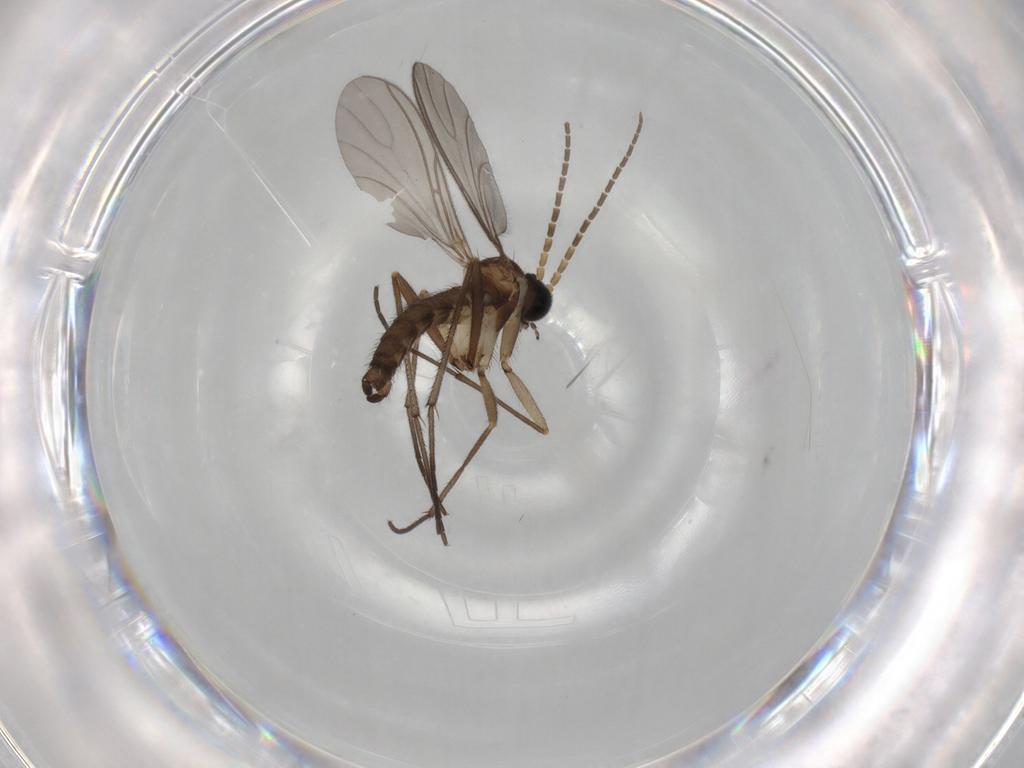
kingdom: Animalia
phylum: Arthropoda
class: Insecta
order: Diptera
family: Sciaridae
